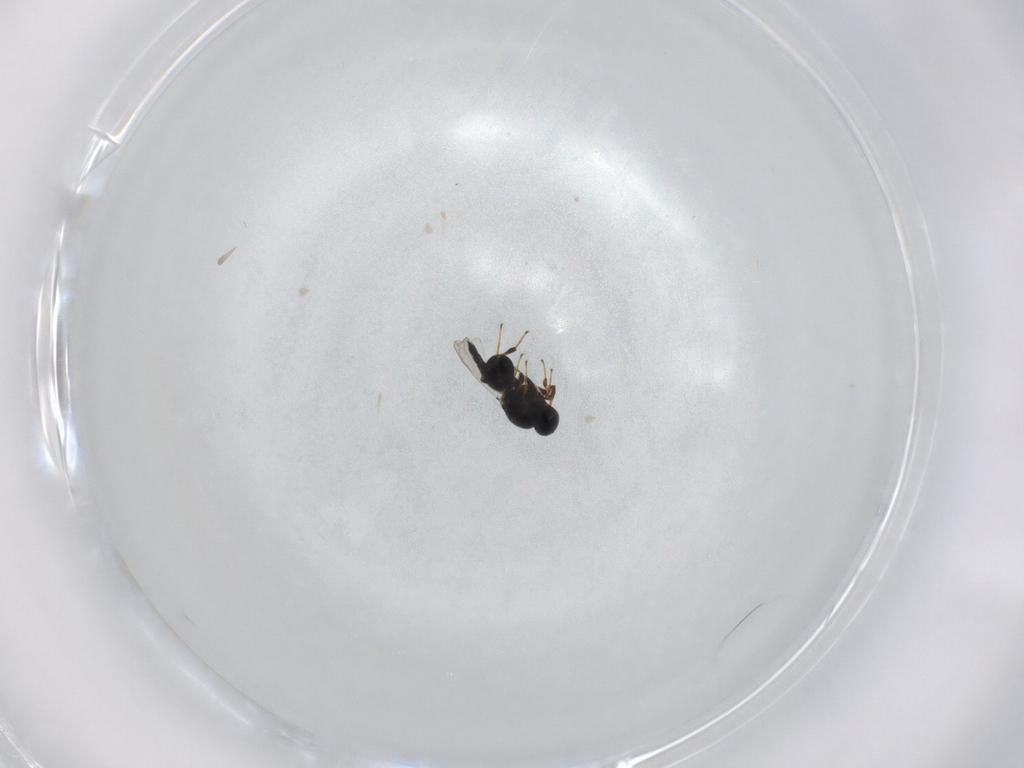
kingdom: Animalia
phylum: Arthropoda
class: Insecta
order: Hymenoptera
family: Platygastridae
